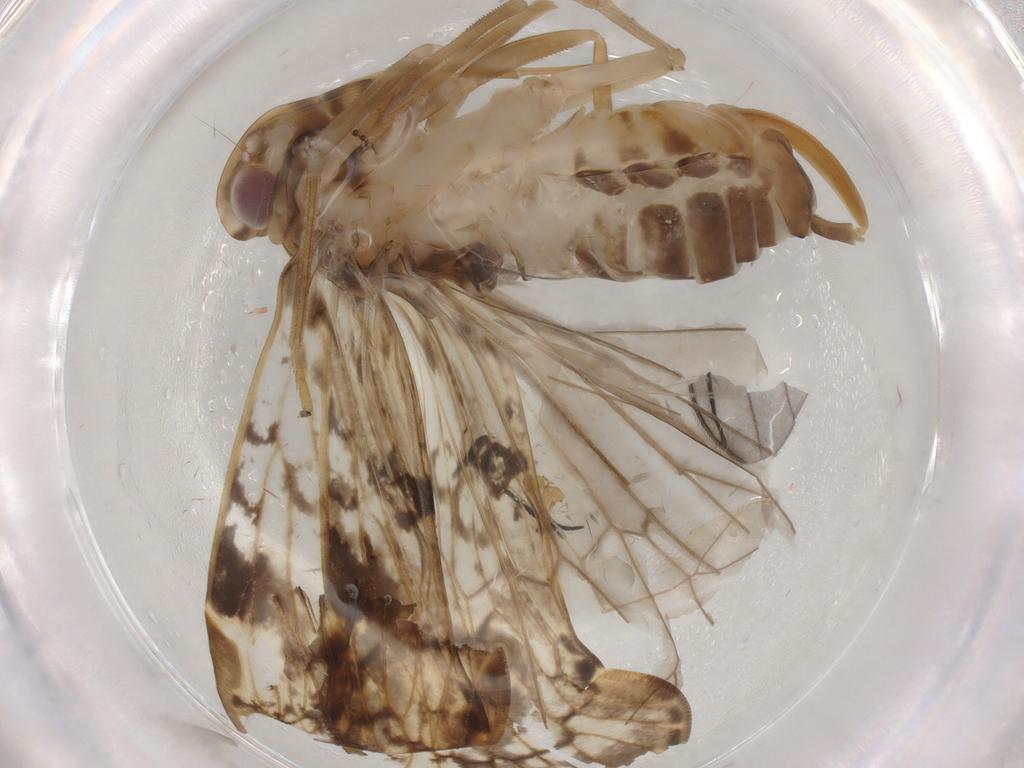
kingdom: Animalia
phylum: Arthropoda
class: Insecta
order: Hemiptera
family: Cixiidae
